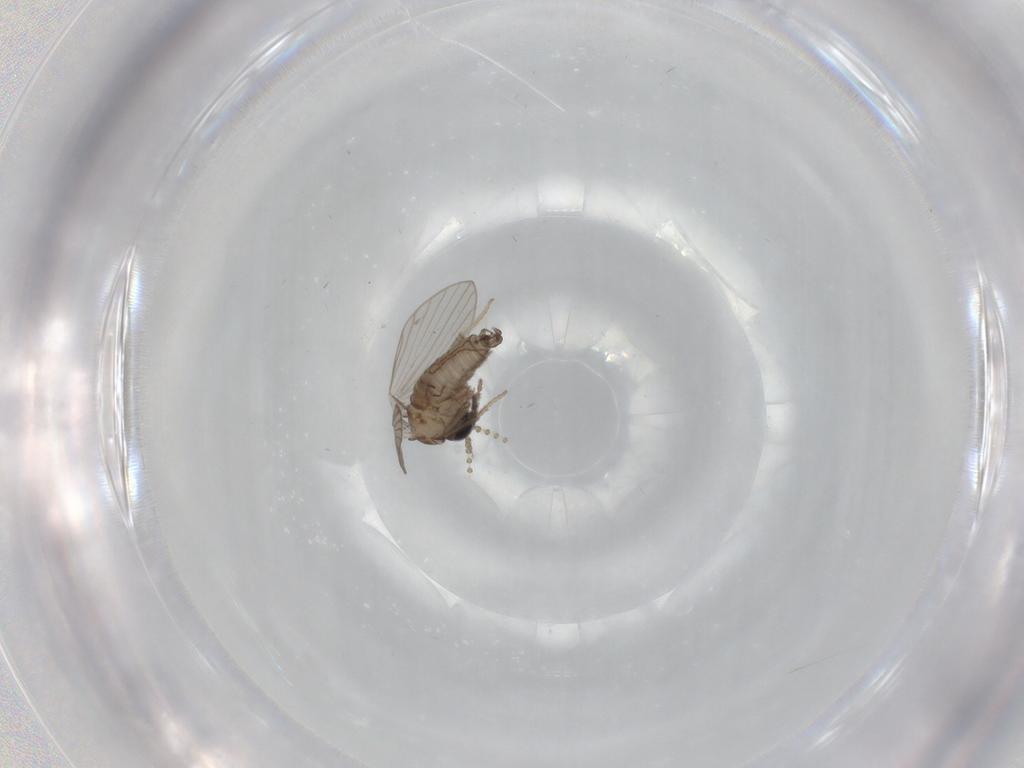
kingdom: Animalia
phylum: Arthropoda
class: Insecta
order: Diptera
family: Psychodidae
